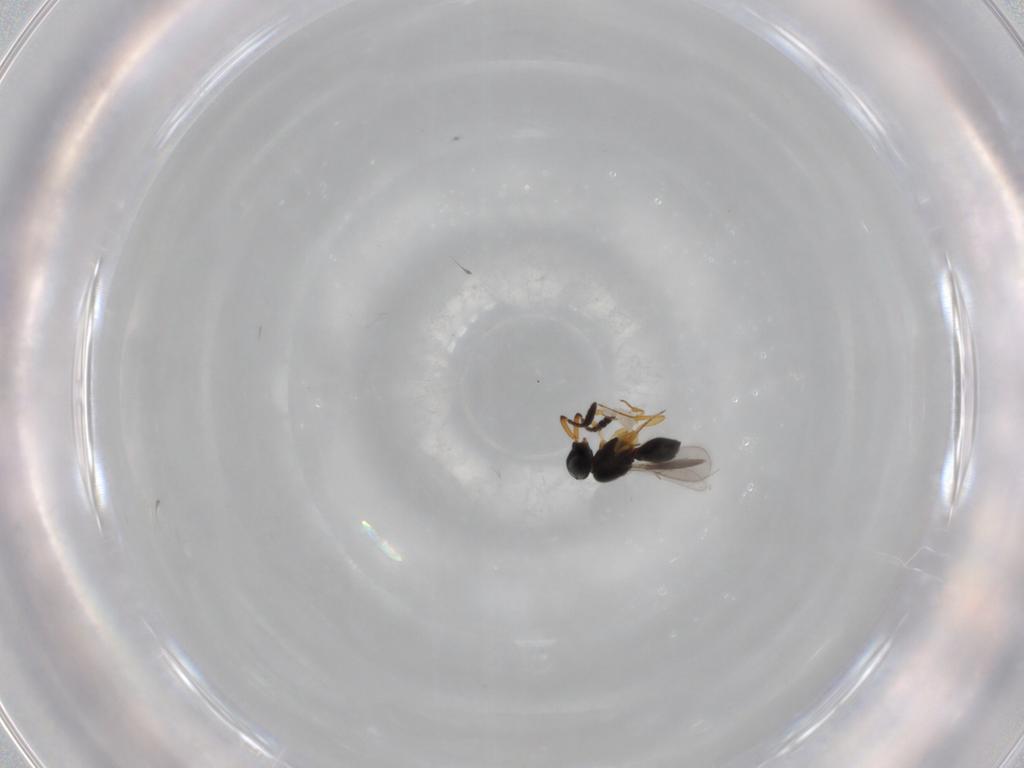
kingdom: Animalia
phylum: Arthropoda
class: Insecta
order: Hymenoptera
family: Scelionidae
